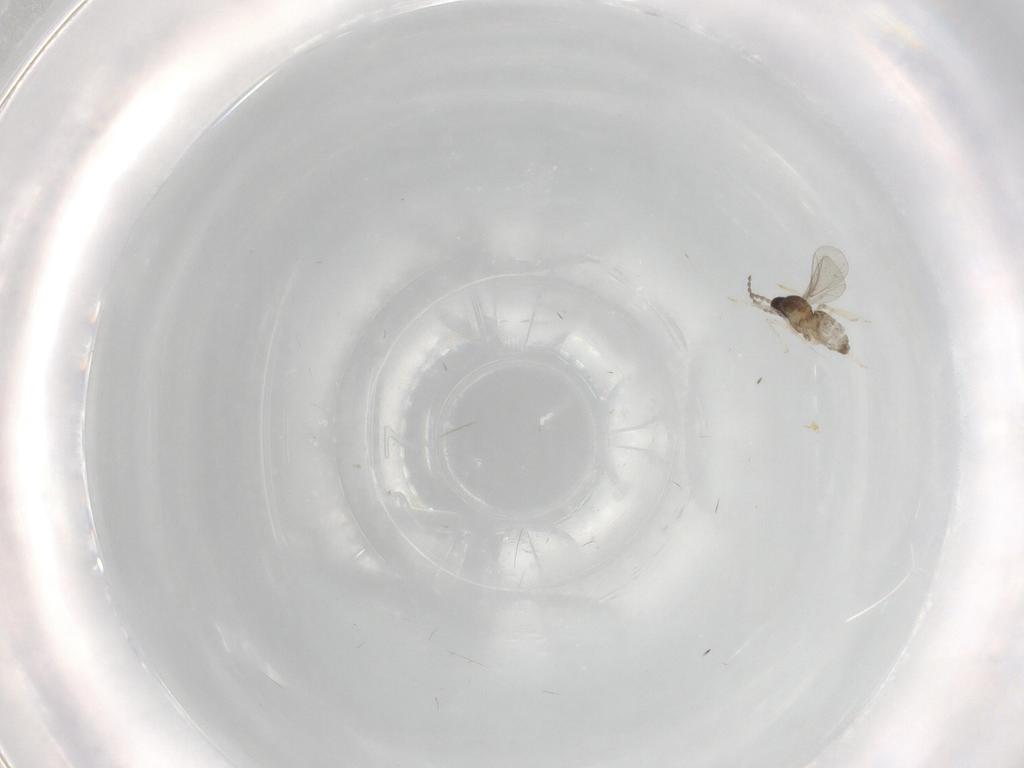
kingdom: Animalia
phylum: Arthropoda
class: Insecta
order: Diptera
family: Cecidomyiidae
